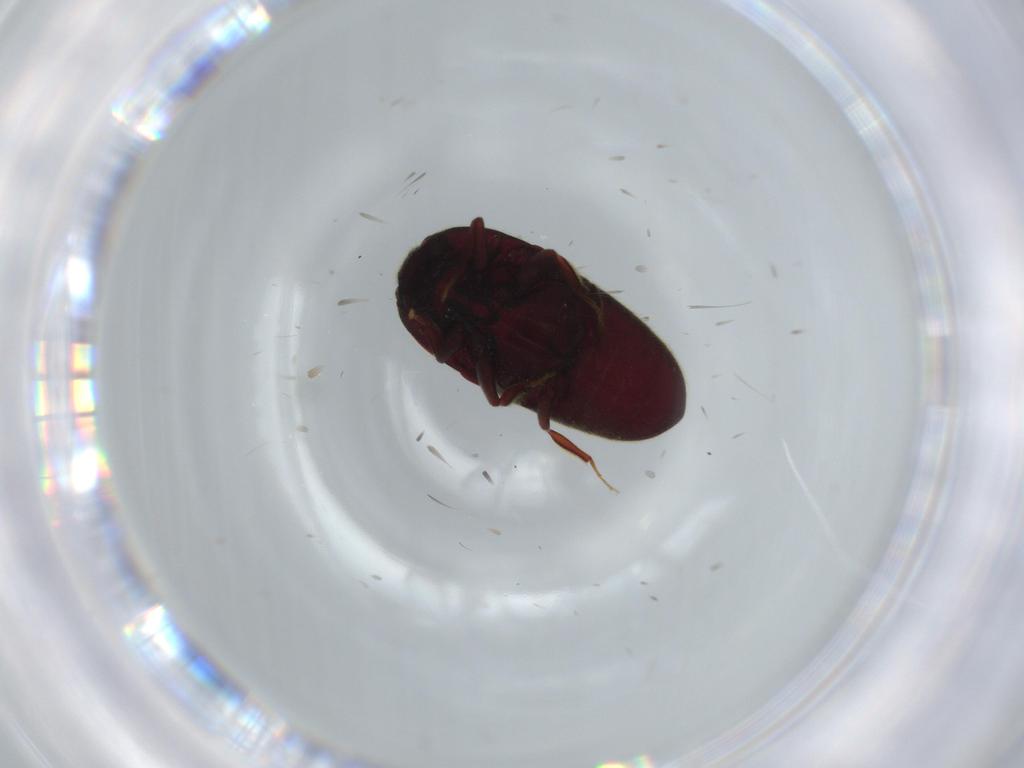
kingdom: Animalia
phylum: Arthropoda
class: Insecta
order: Coleoptera
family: Throscidae
